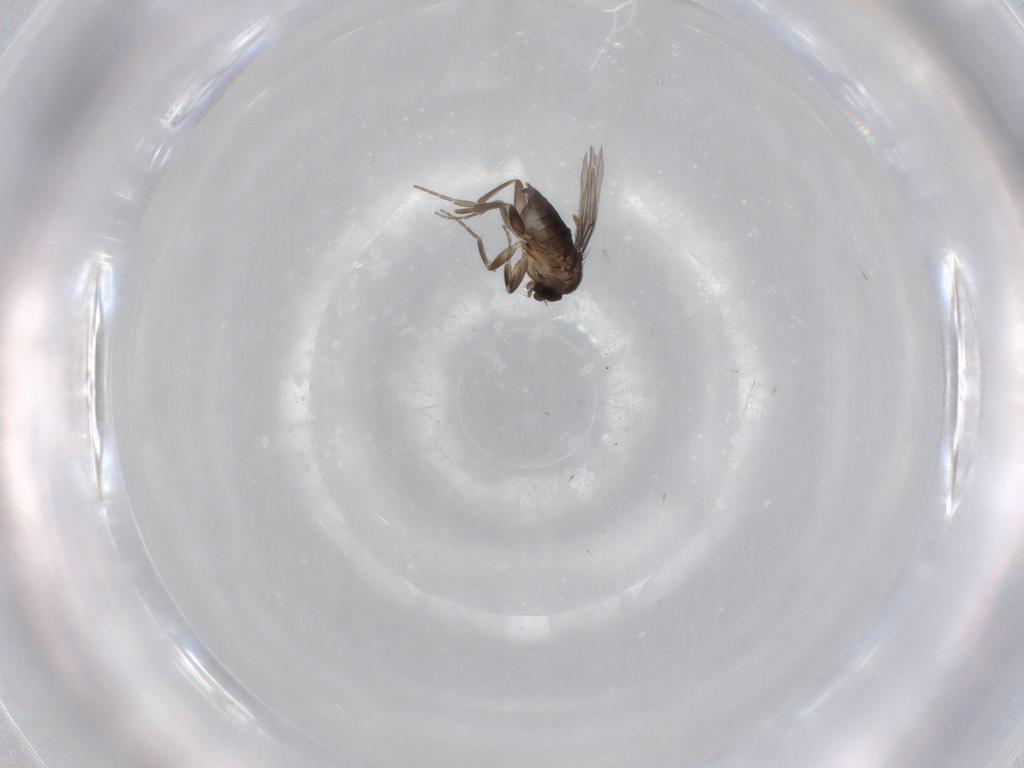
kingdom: Animalia
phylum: Arthropoda
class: Insecta
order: Diptera
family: Phoridae
